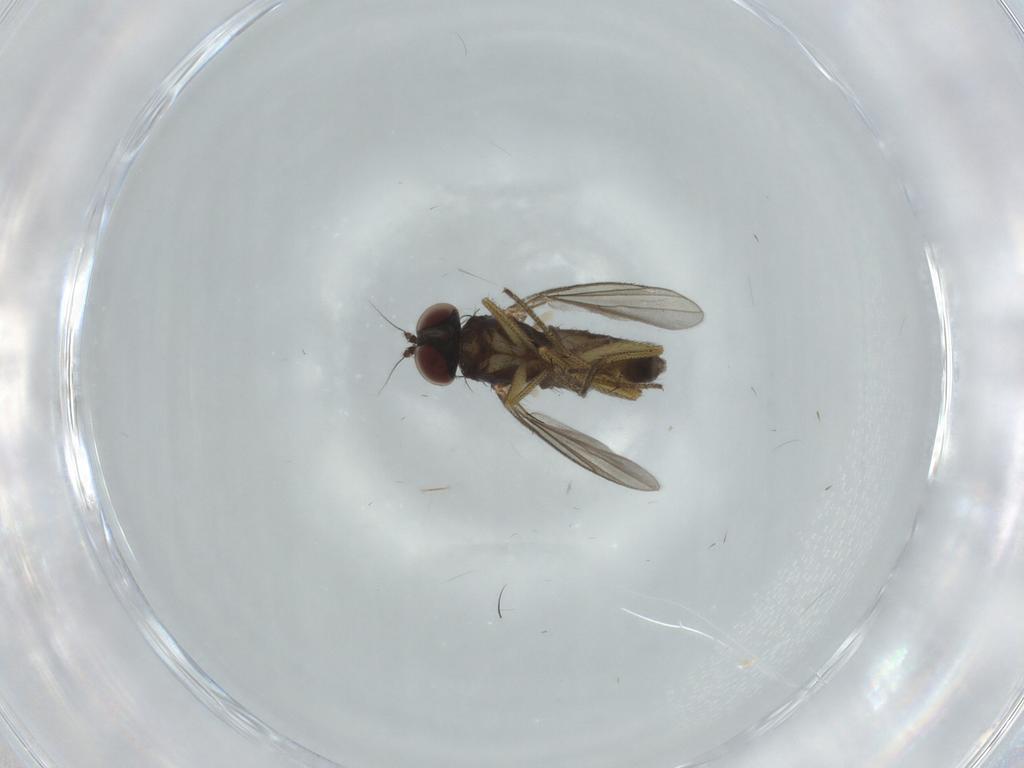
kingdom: Animalia
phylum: Arthropoda
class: Insecta
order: Diptera
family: Dolichopodidae
